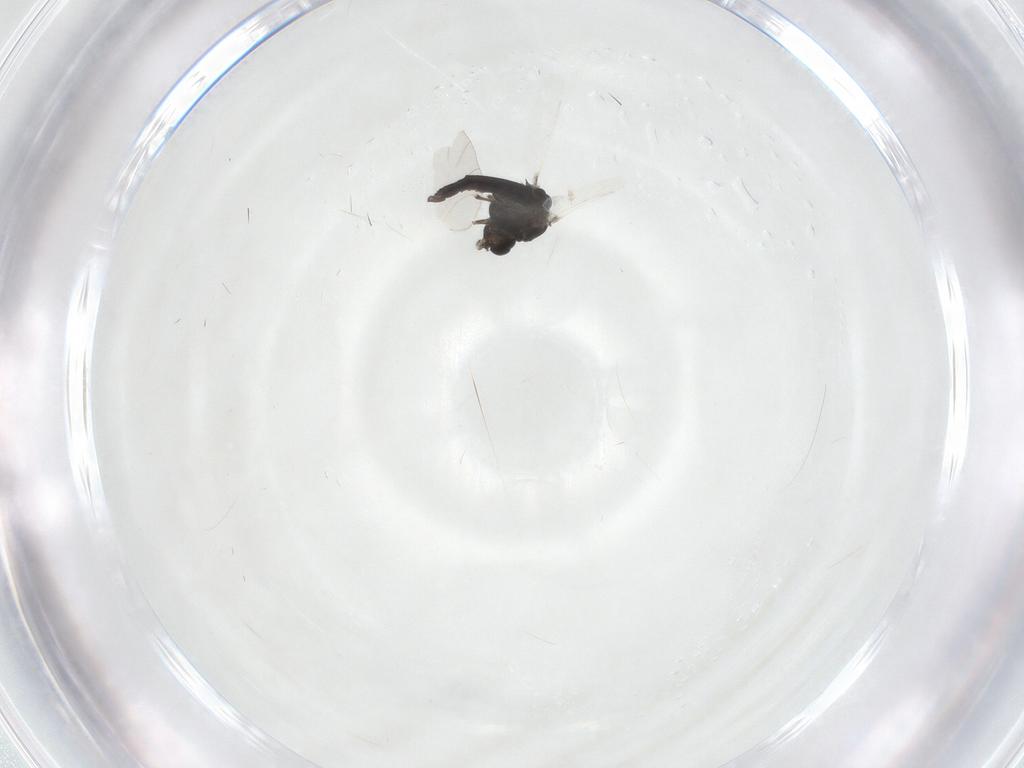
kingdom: Animalia
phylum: Arthropoda
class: Insecta
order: Diptera
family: Chironomidae
